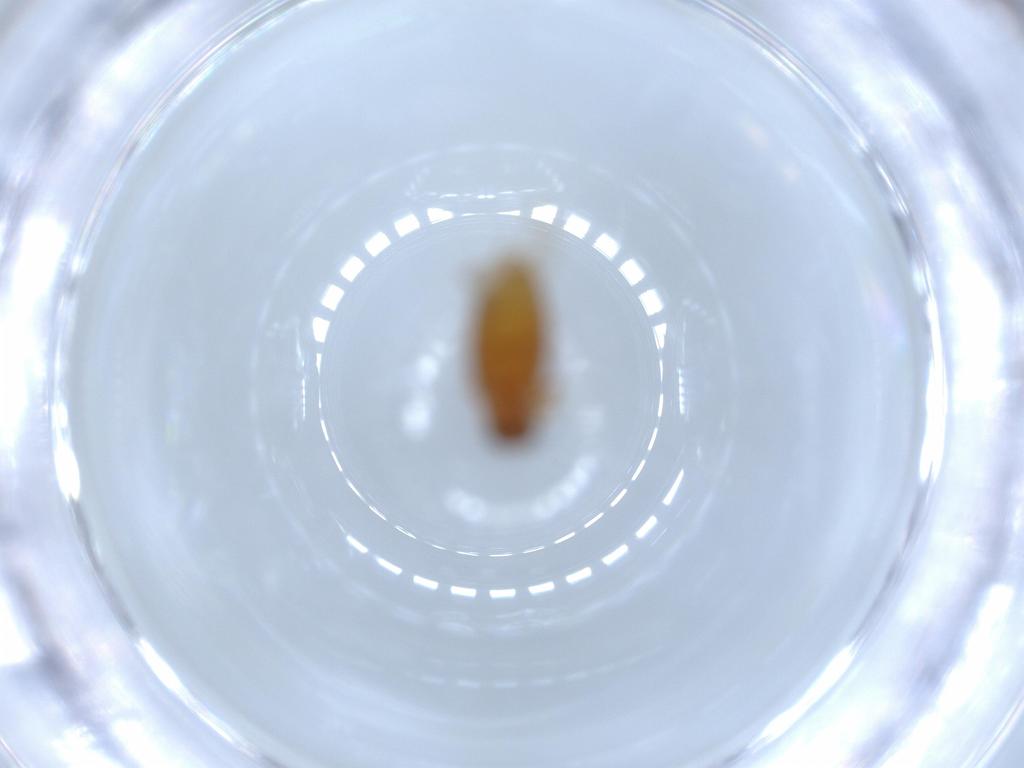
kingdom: Animalia
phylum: Arthropoda
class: Insecta
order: Coleoptera
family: Aderidae
